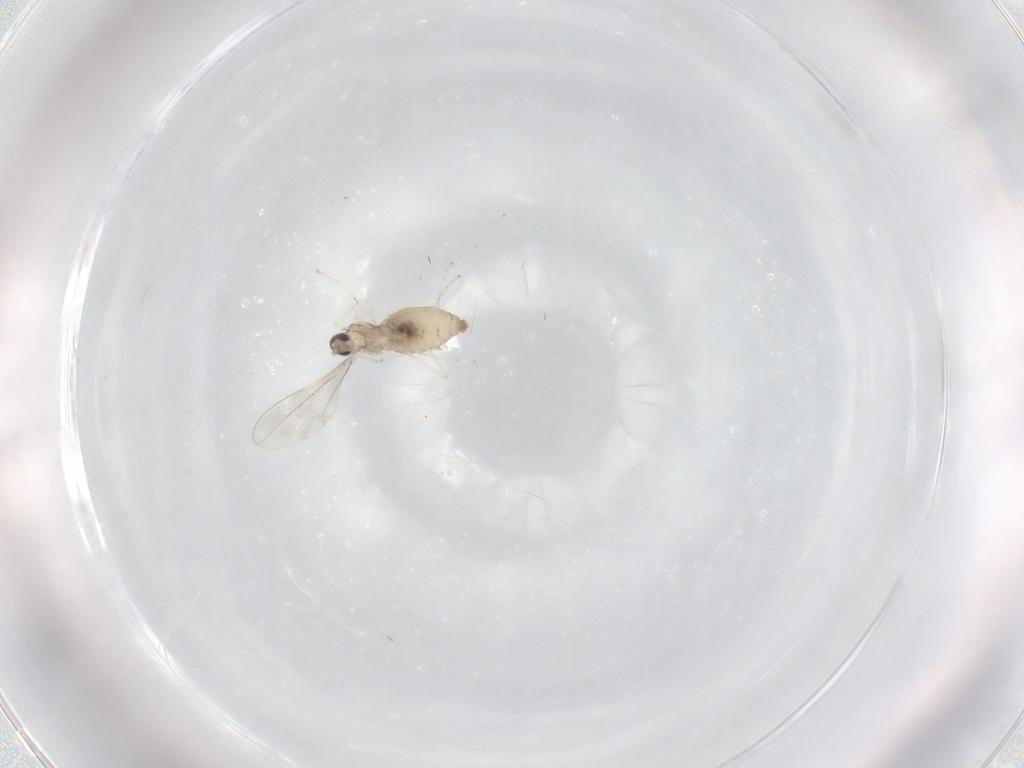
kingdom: Animalia
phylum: Arthropoda
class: Insecta
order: Diptera
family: Cecidomyiidae
